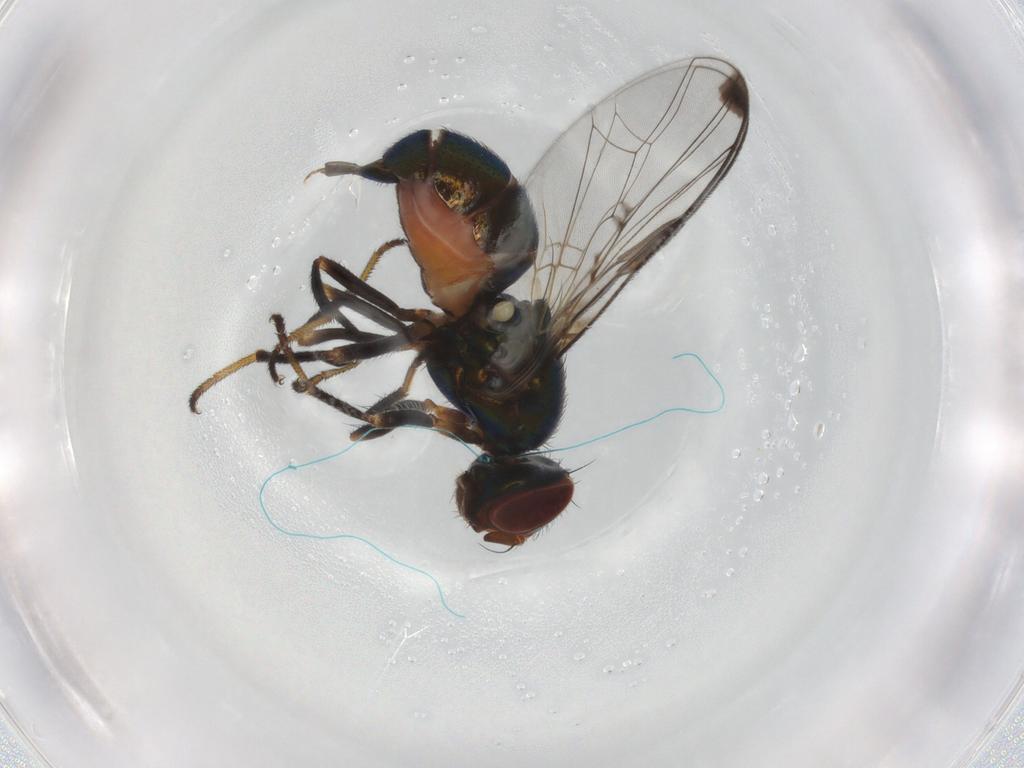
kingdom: Animalia
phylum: Arthropoda
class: Insecta
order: Diptera
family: Platystomatidae
